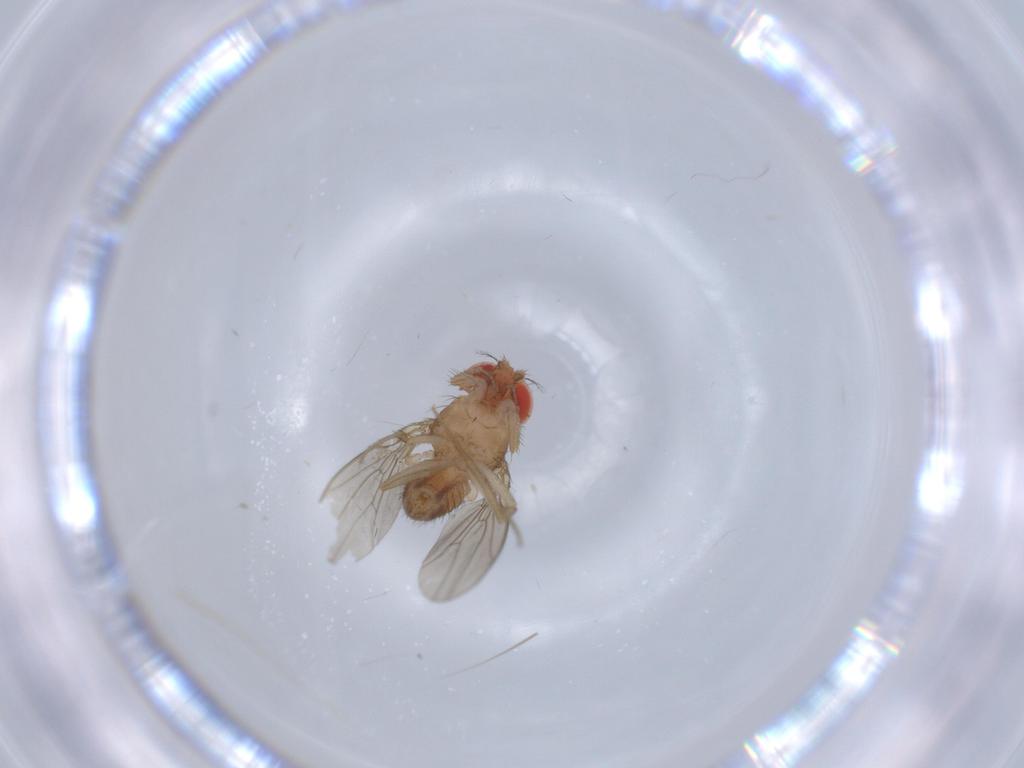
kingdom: Animalia
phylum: Arthropoda
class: Insecta
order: Diptera
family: Drosophilidae
